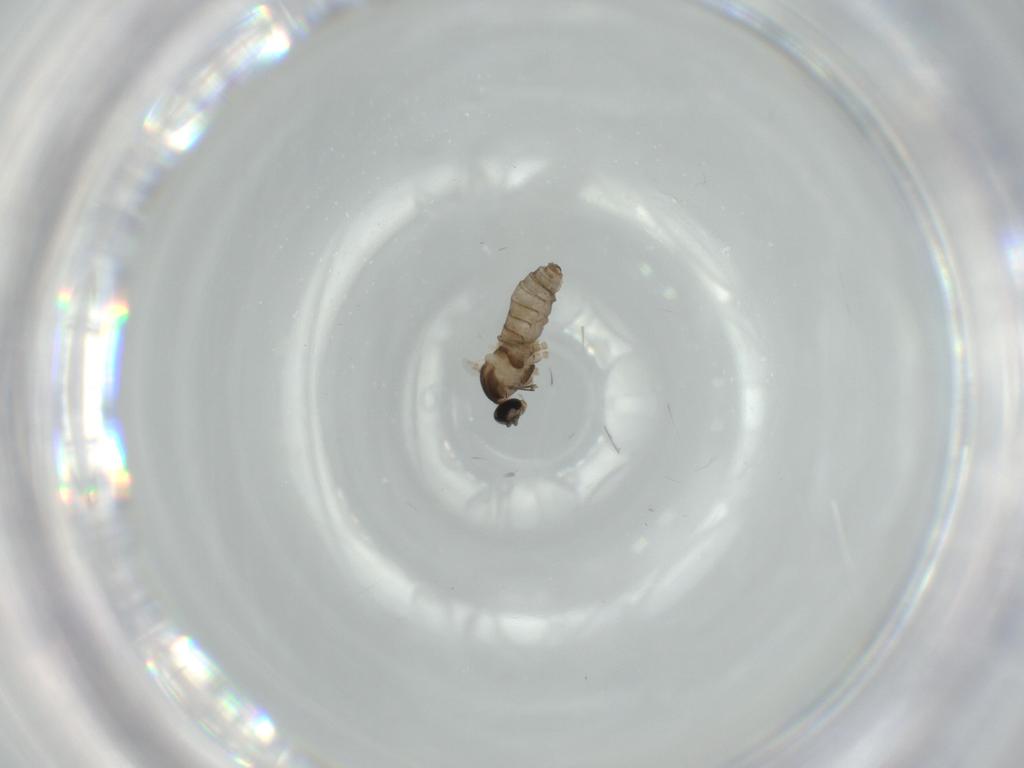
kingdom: Animalia
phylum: Arthropoda
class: Insecta
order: Diptera
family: Cecidomyiidae
